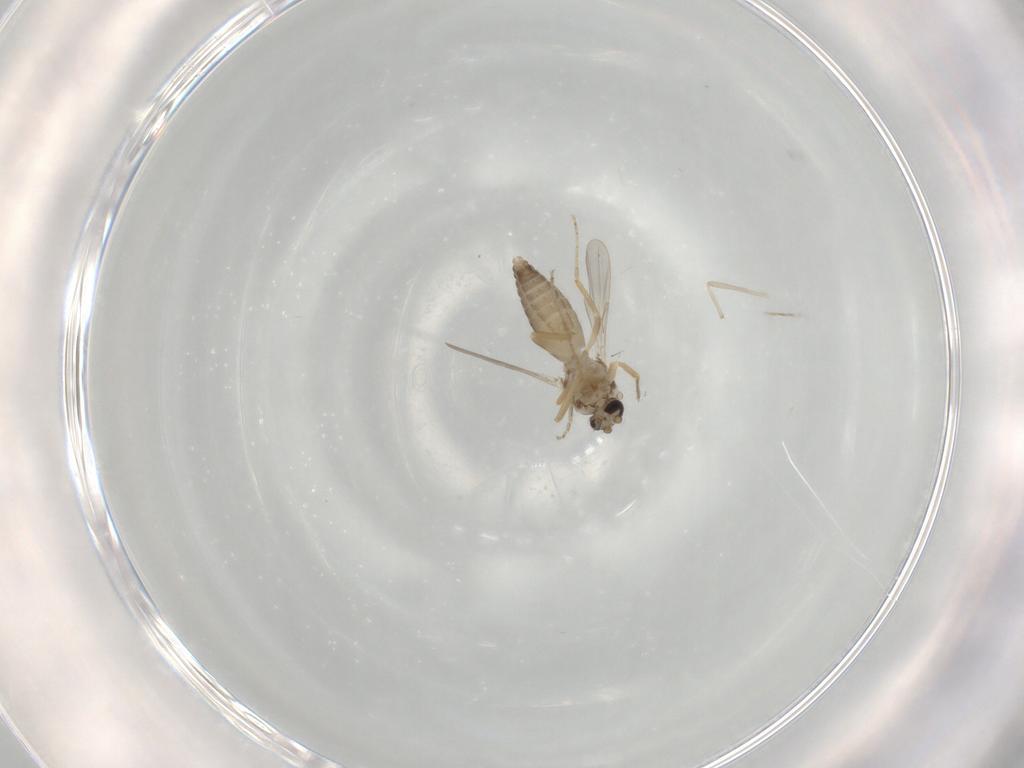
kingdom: Animalia
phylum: Arthropoda
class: Insecta
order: Diptera
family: Ceratopogonidae
